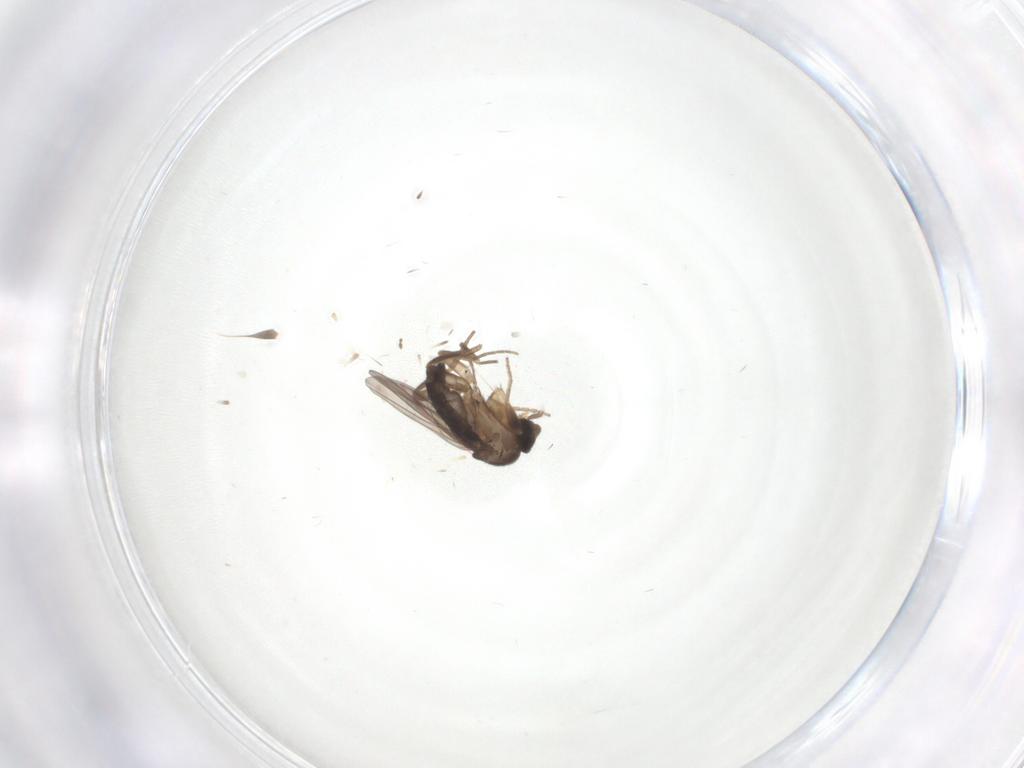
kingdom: Animalia
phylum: Arthropoda
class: Insecta
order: Diptera
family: Phoridae
